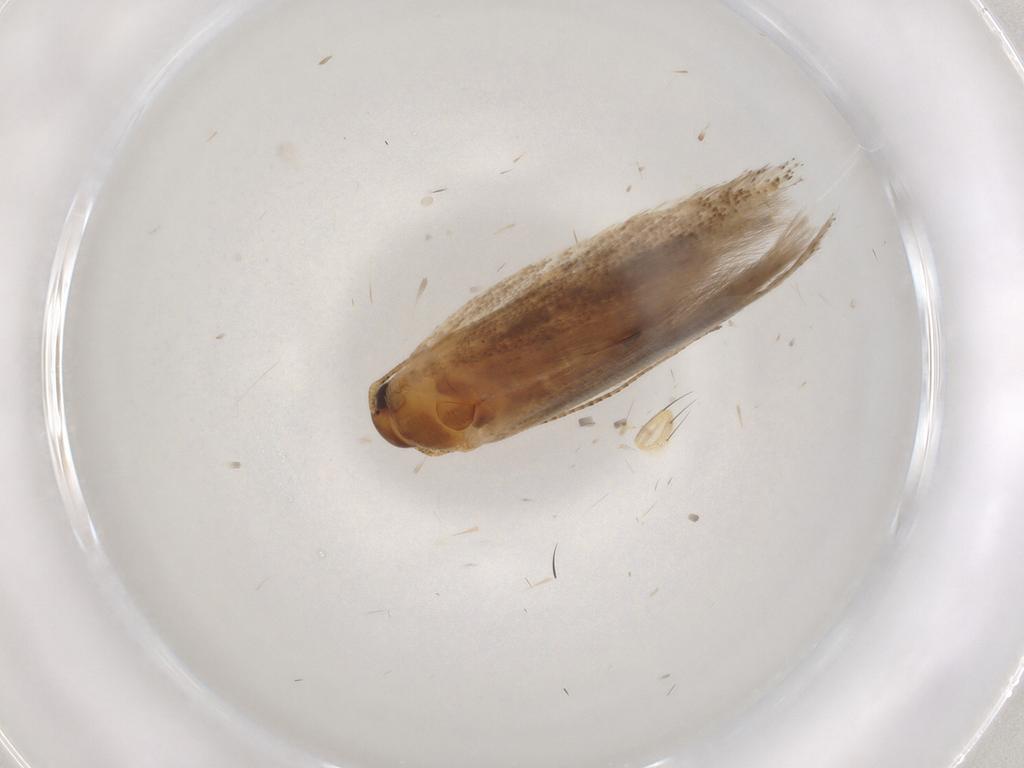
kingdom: Animalia
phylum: Arthropoda
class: Insecta
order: Lepidoptera
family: Gelechiidae
